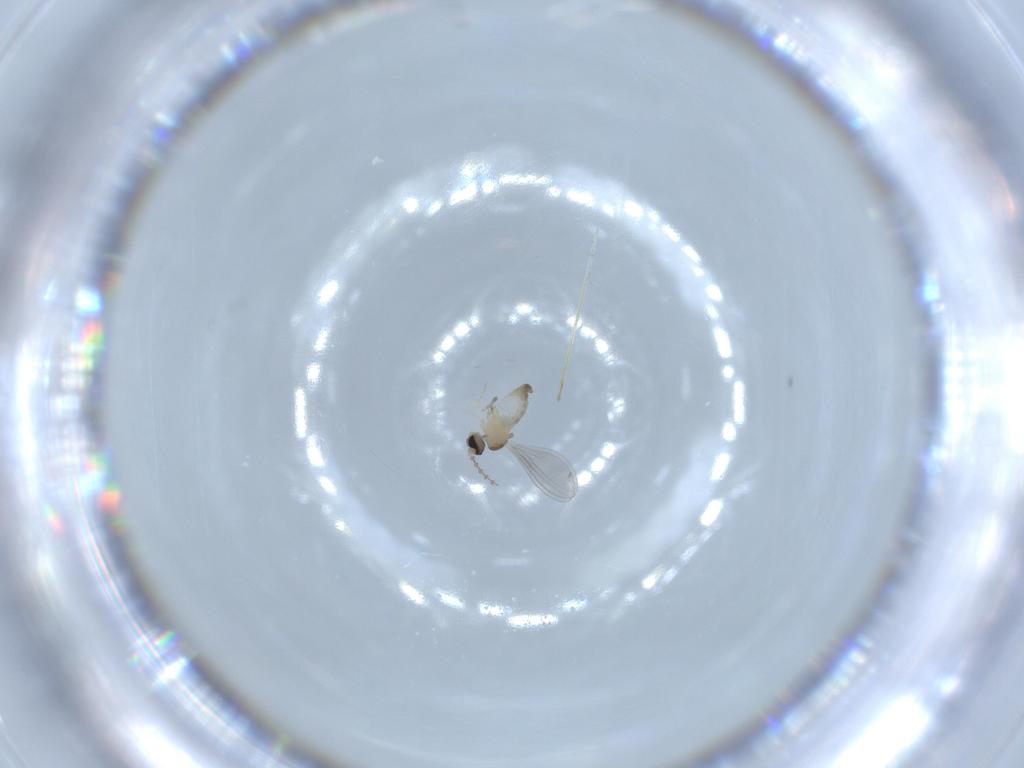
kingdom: Animalia
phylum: Arthropoda
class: Insecta
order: Diptera
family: Cecidomyiidae
